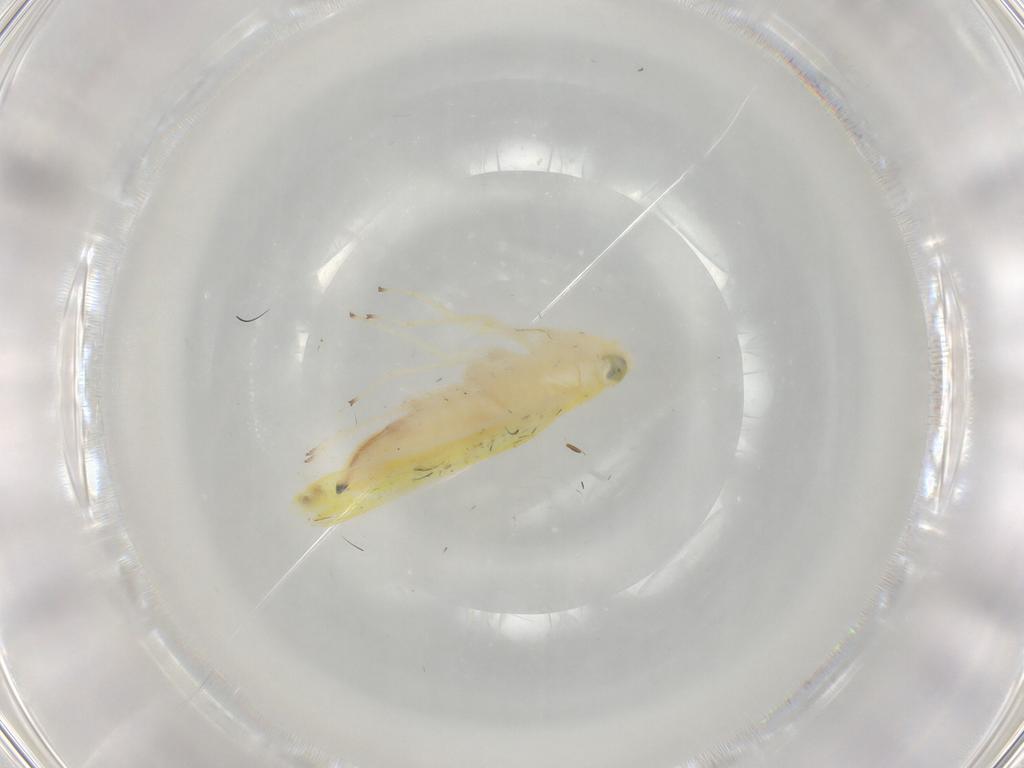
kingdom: Animalia
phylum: Arthropoda
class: Insecta
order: Hemiptera
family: Cicadellidae
